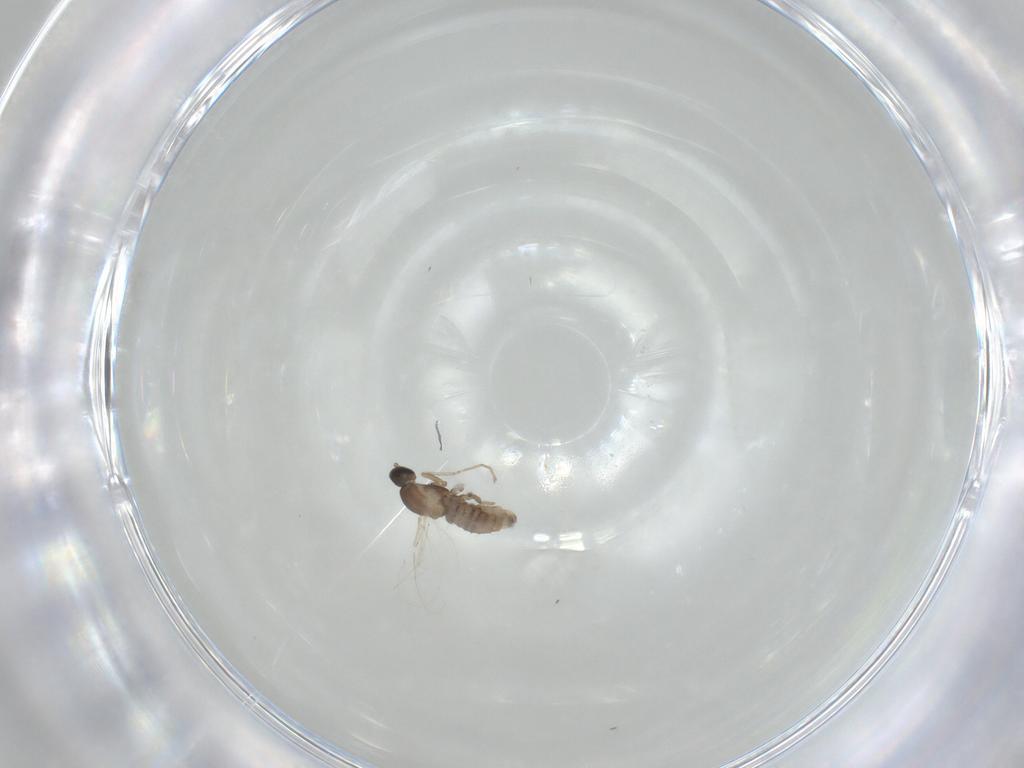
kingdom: Animalia
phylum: Arthropoda
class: Insecta
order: Diptera
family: Cecidomyiidae
